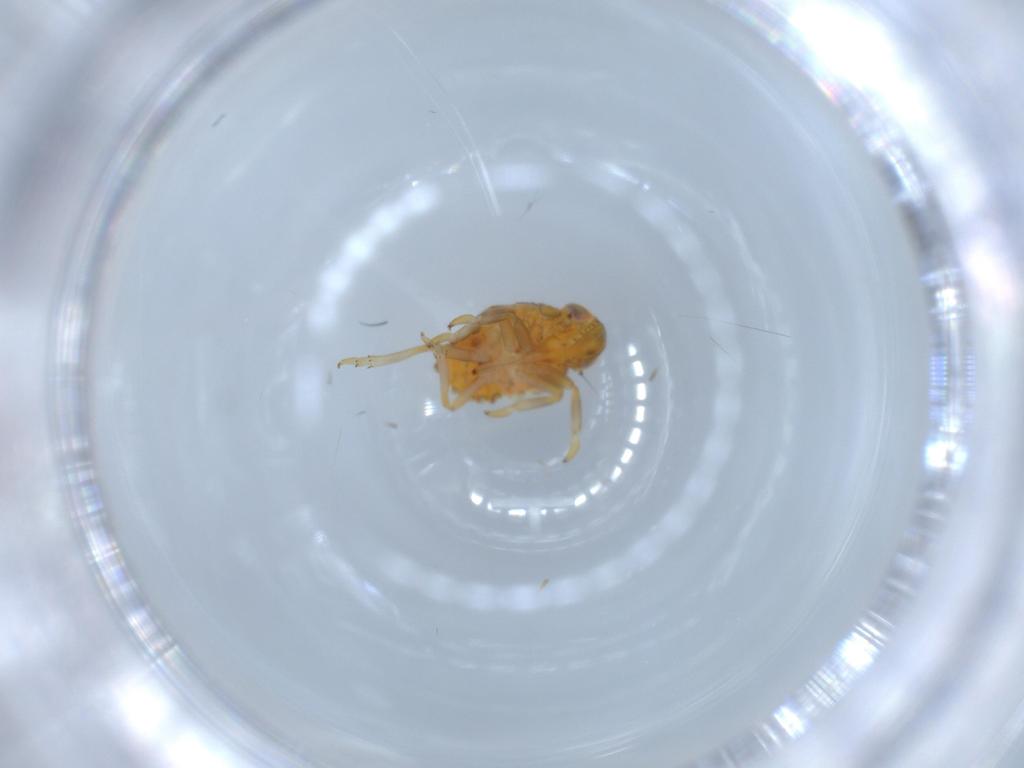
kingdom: Animalia
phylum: Arthropoda
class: Insecta
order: Hemiptera
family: Issidae
